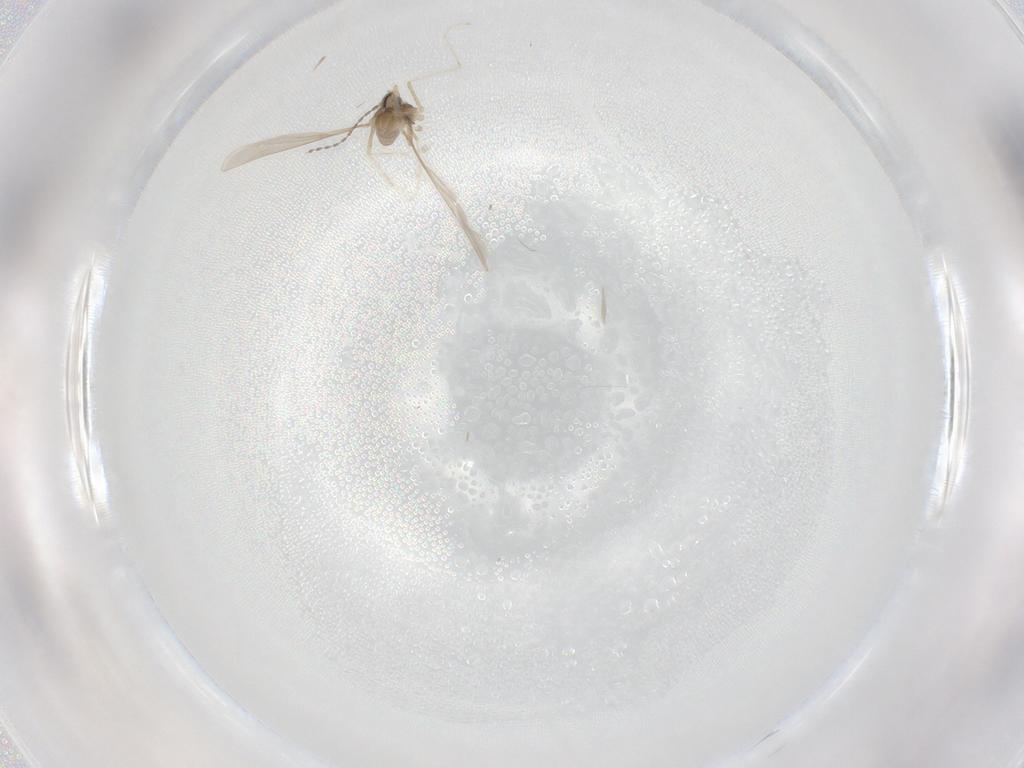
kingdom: Animalia
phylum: Arthropoda
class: Insecta
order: Diptera
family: Cecidomyiidae
